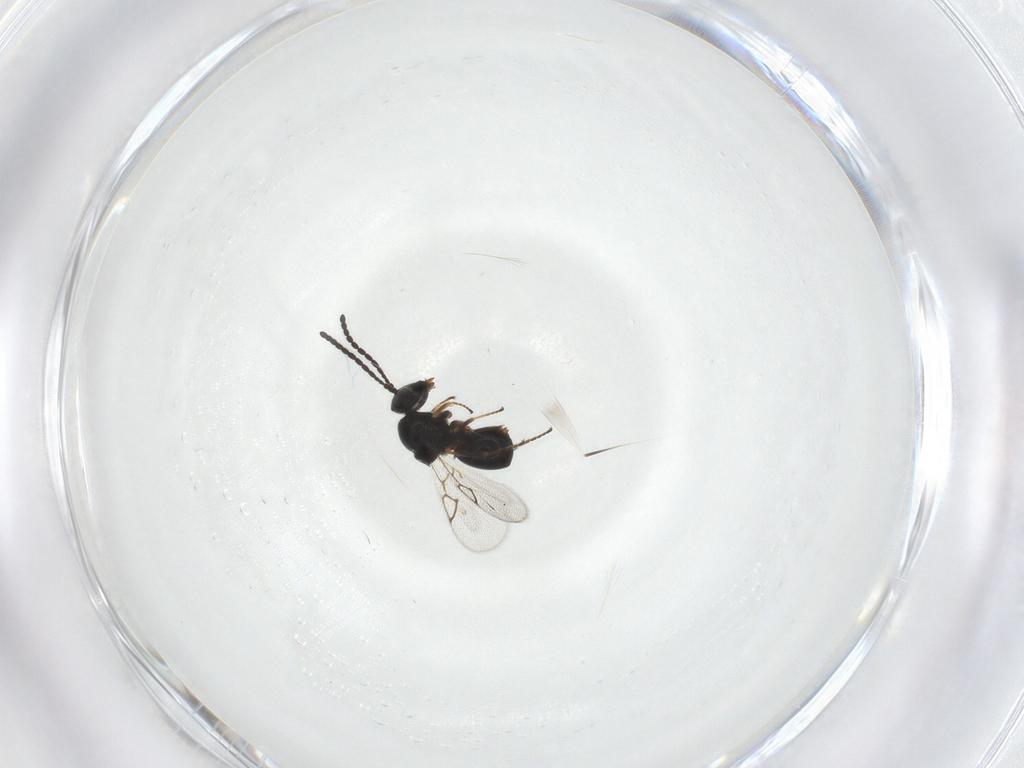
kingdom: Animalia
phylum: Arthropoda
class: Insecta
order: Hymenoptera
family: Figitidae
